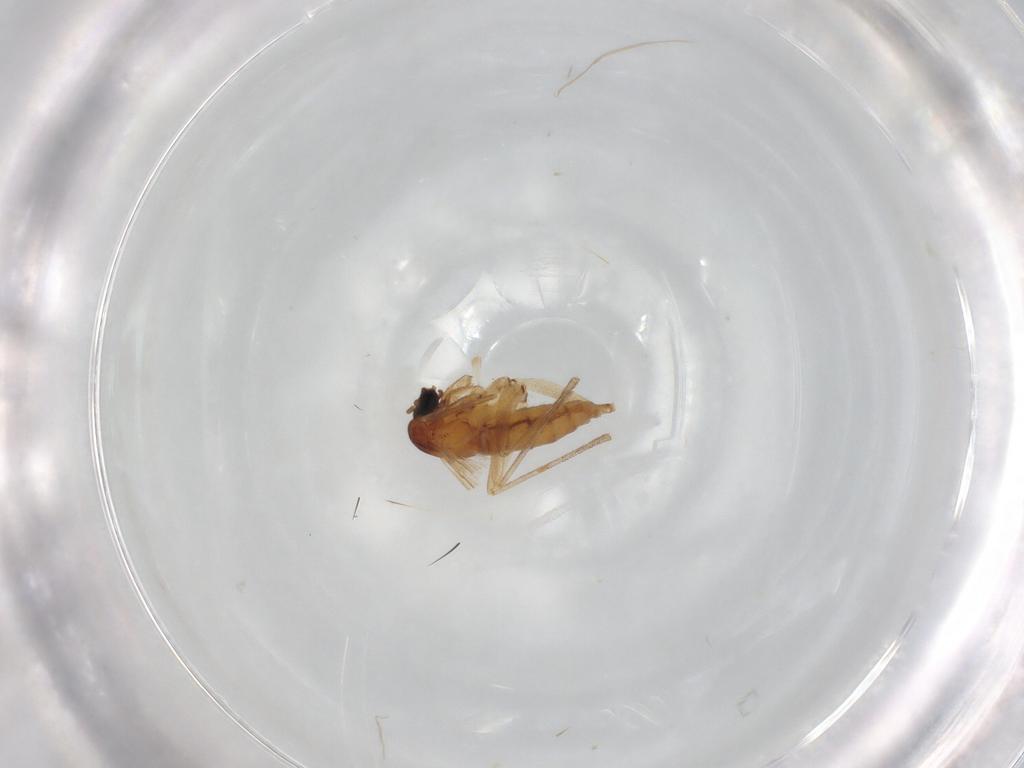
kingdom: Animalia
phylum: Arthropoda
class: Insecta
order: Diptera
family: Sciaridae
